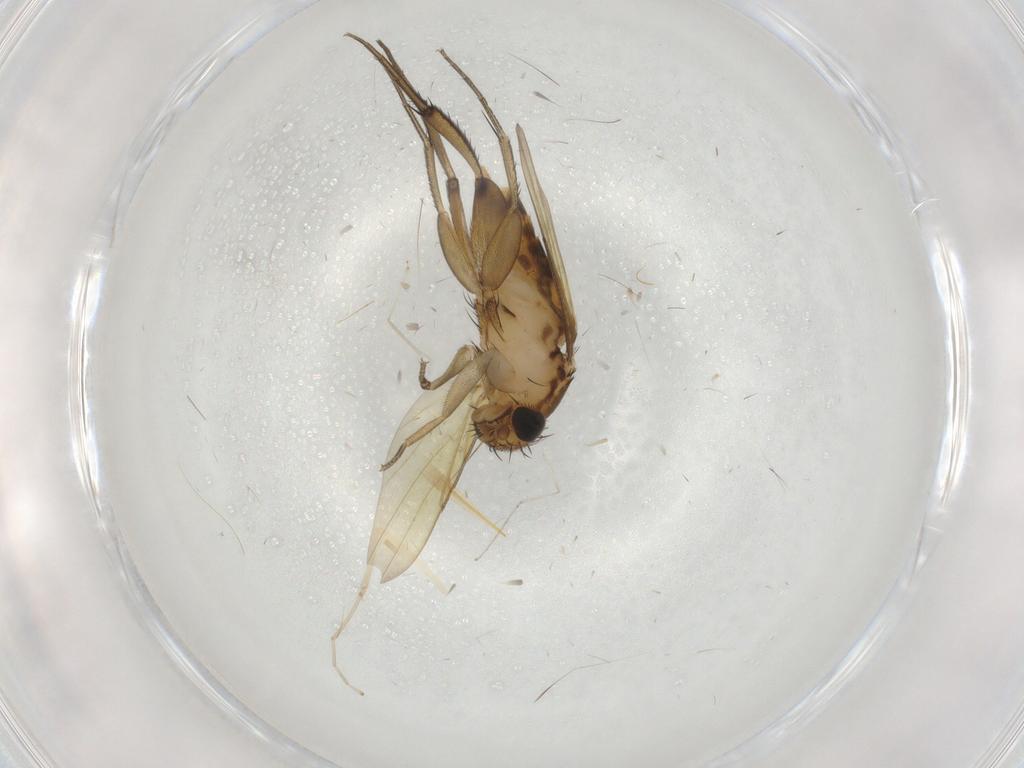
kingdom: Animalia
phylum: Arthropoda
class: Insecta
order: Diptera
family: Phoridae
